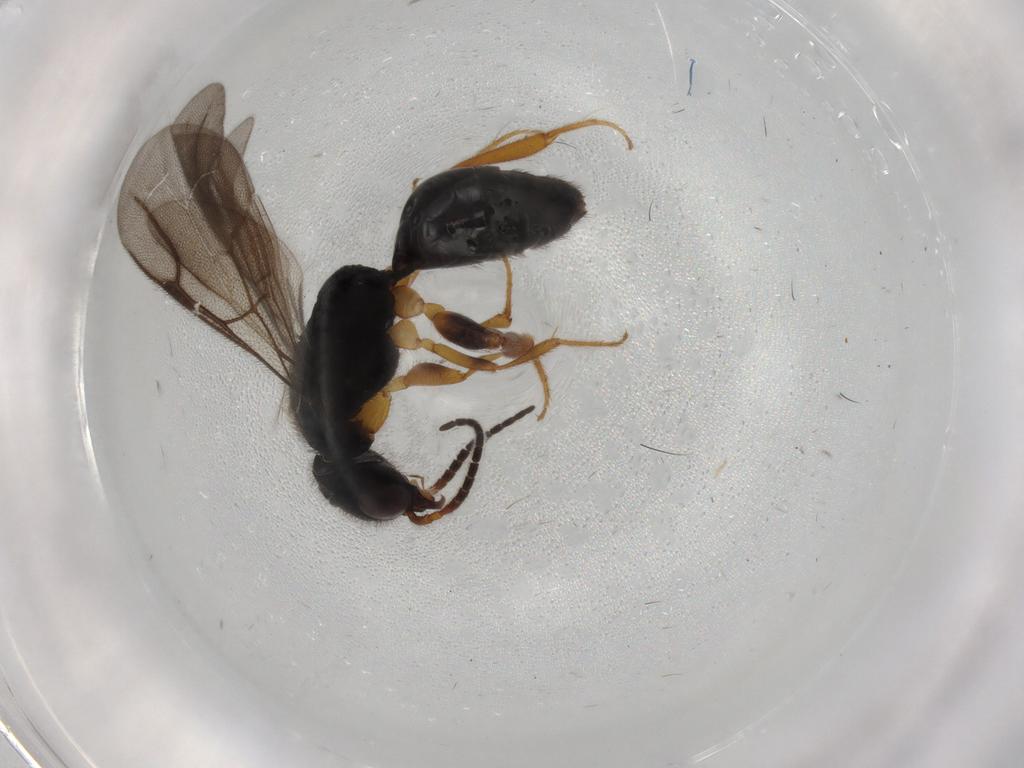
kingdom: Animalia
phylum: Arthropoda
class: Insecta
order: Hymenoptera
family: Bethylidae
